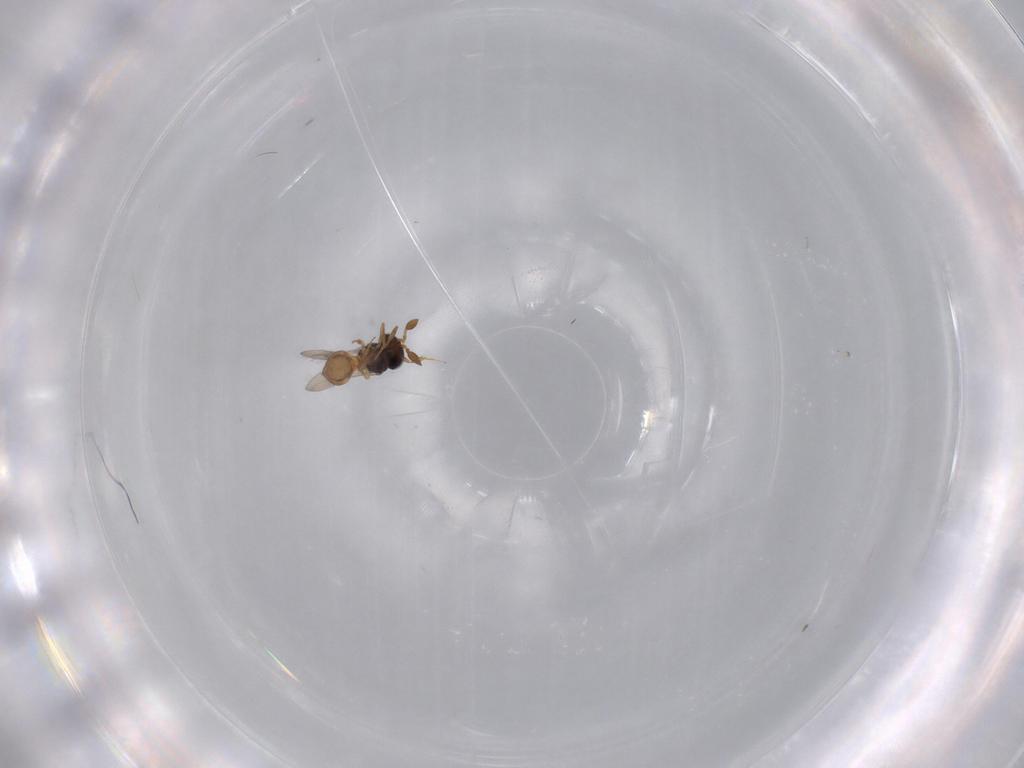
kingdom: Animalia
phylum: Arthropoda
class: Insecta
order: Hymenoptera
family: Scelionidae
